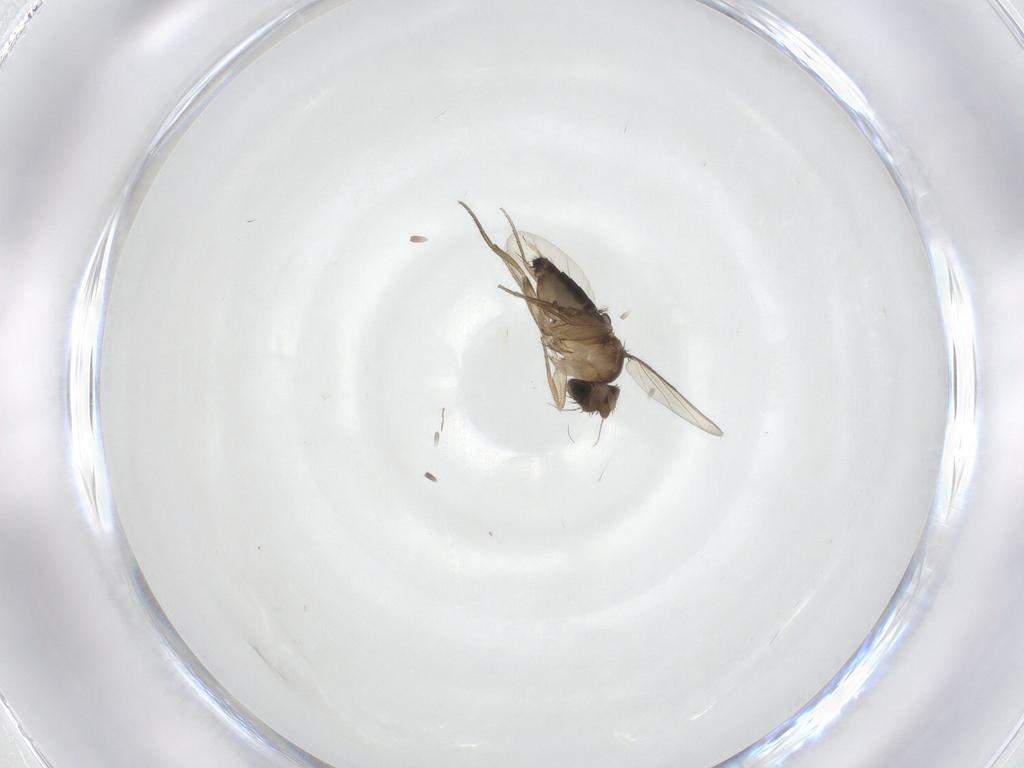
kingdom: Animalia
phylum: Arthropoda
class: Insecta
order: Diptera
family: Chironomidae
